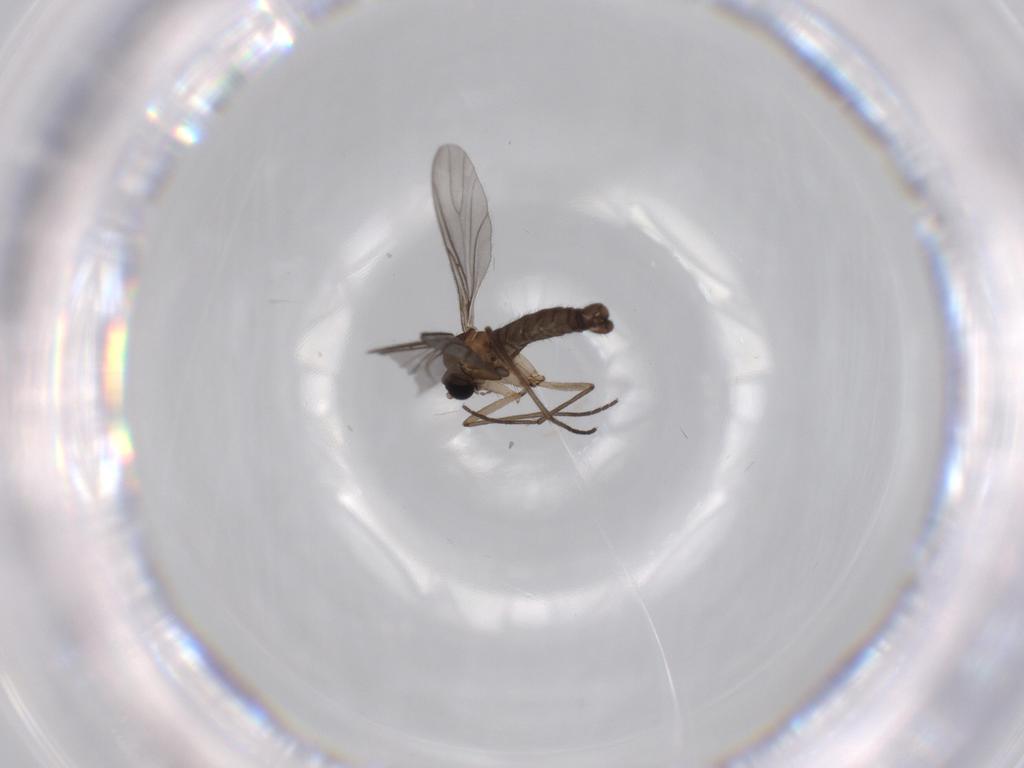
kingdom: Animalia
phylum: Arthropoda
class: Insecta
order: Diptera
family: Sciaridae
